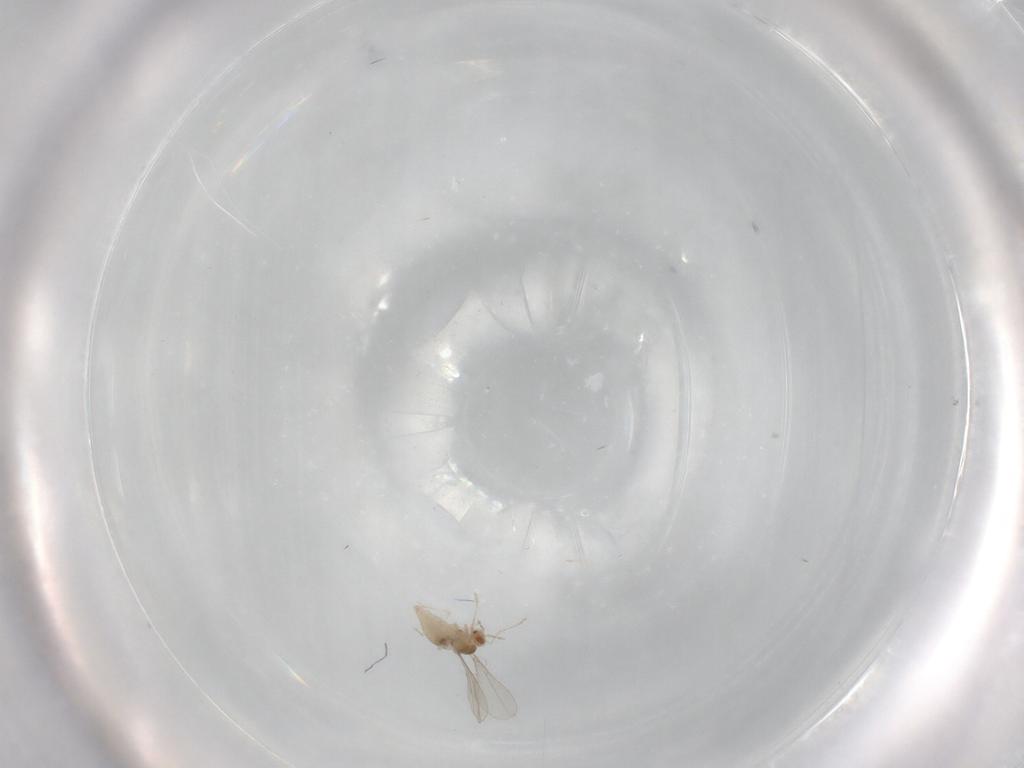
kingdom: Animalia
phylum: Arthropoda
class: Insecta
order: Diptera
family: Cecidomyiidae
